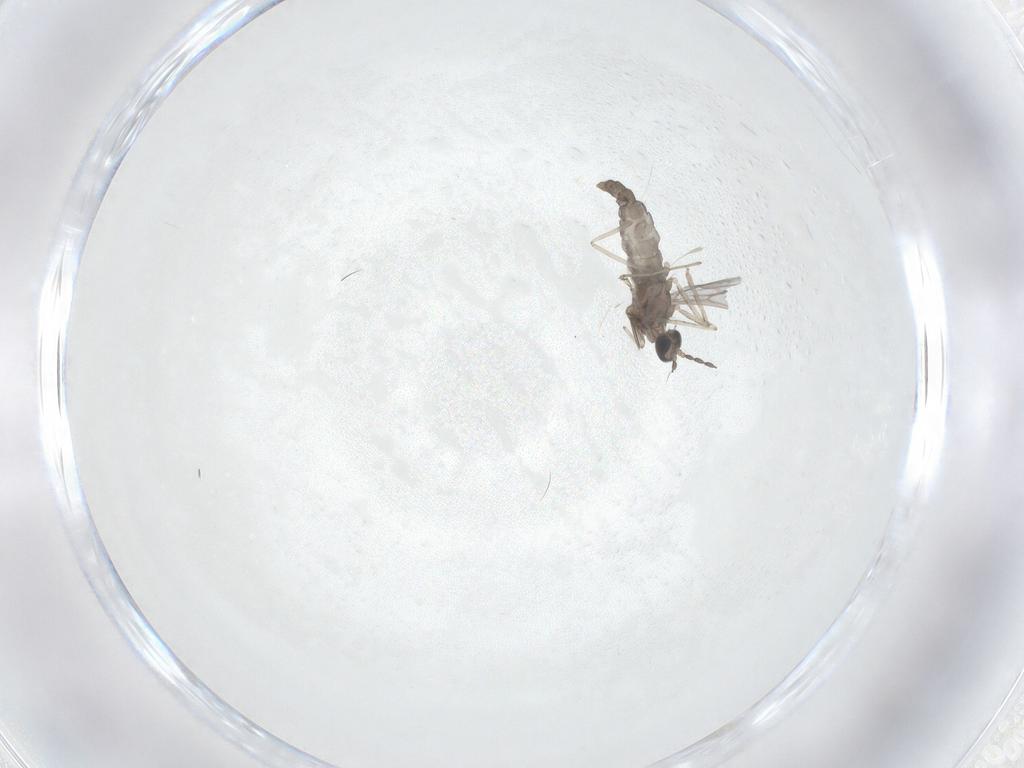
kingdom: Animalia
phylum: Arthropoda
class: Insecta
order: Diptera
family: Cecidomyiidae
